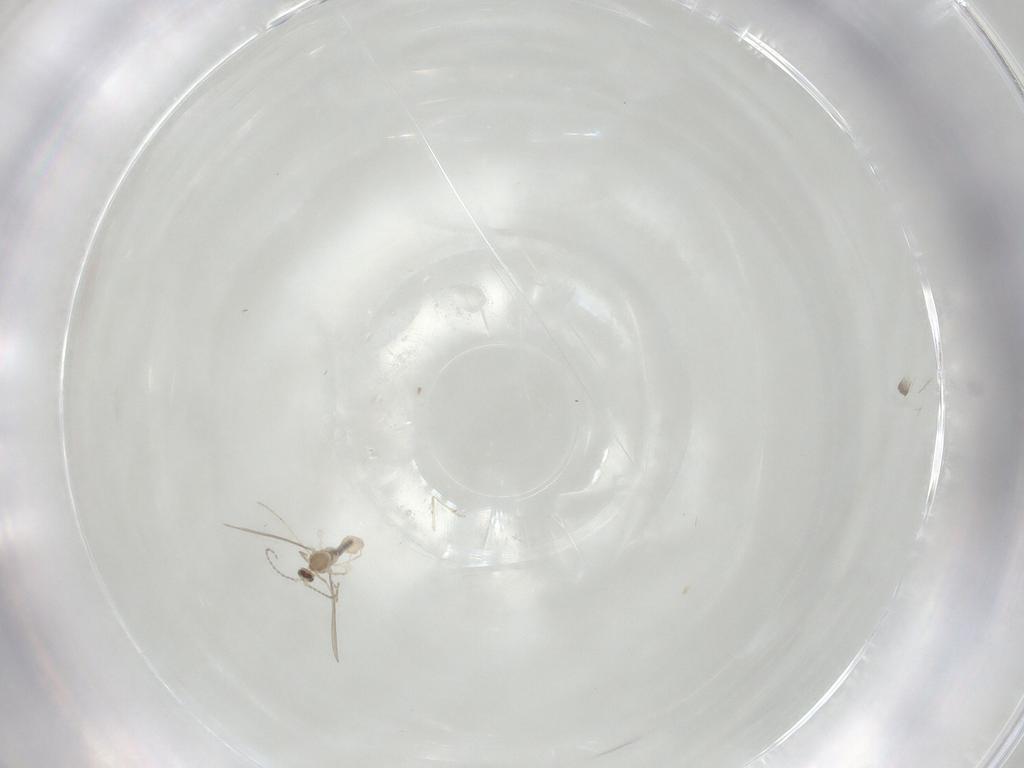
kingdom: Animalia
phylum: Arthropoda
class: Insecta
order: Diptera
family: Cecidomyiidae
